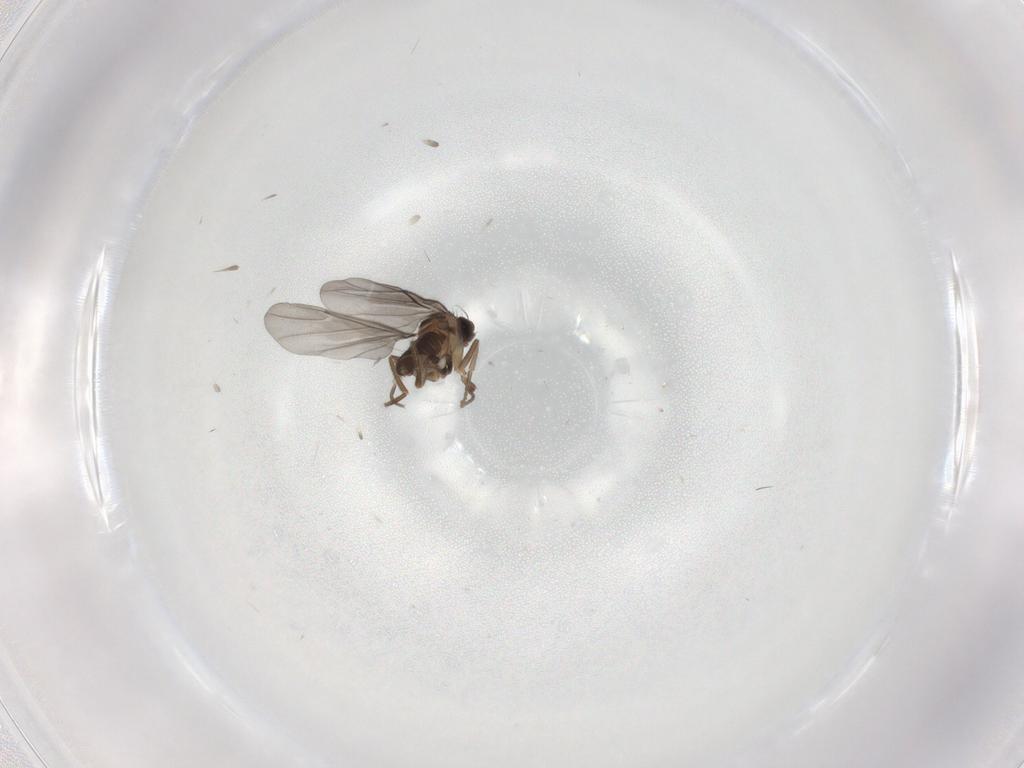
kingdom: Animalia
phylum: Arthropoda
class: Insecta
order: Diptera
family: Phoridae
